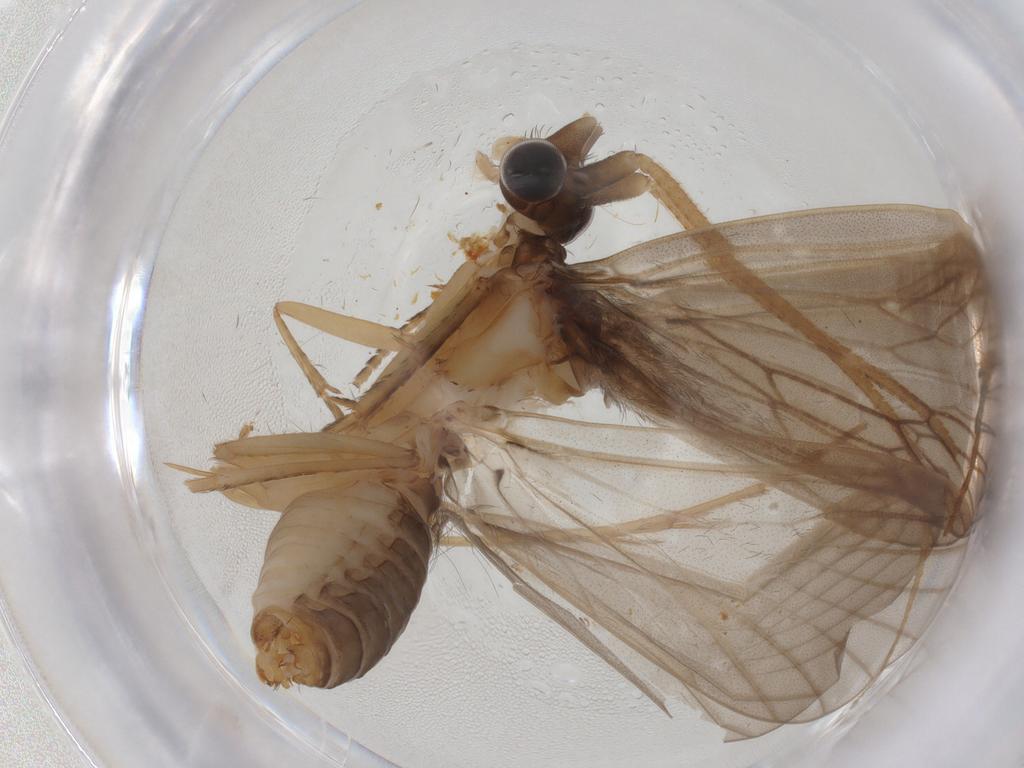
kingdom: Animalia
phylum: Arthropoda
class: Insecta
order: Trichoptera
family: Lepidostomatidae
